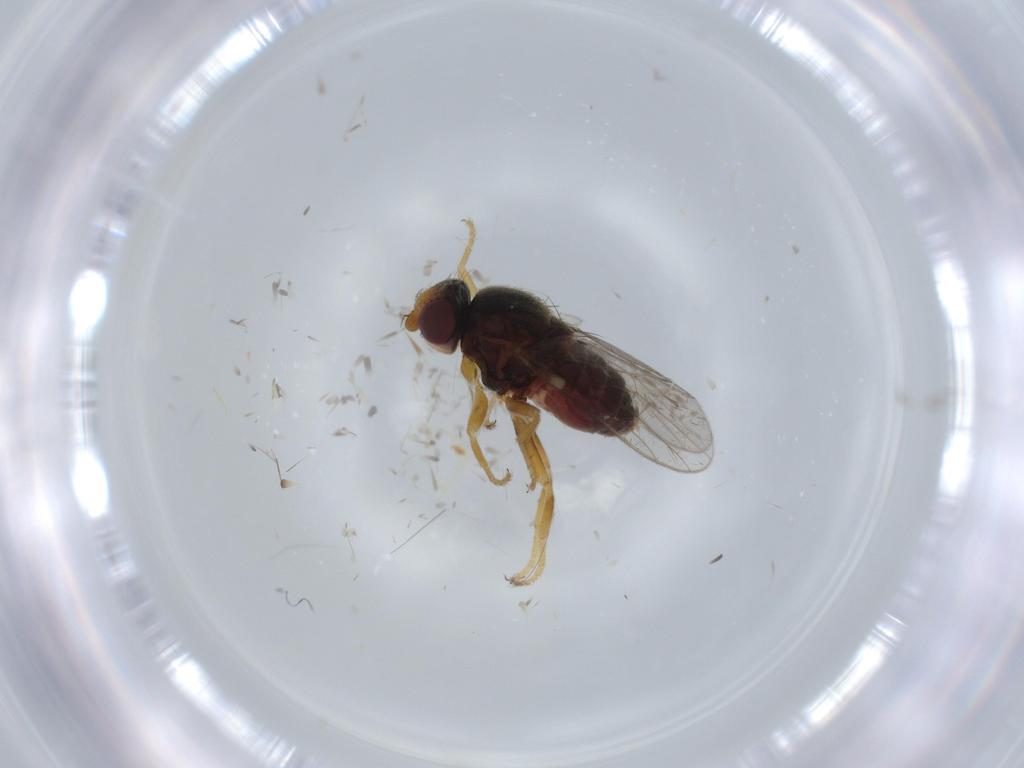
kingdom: Animalia
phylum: Arthropoda
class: Insecta
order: Diptera
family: Chloropidae
